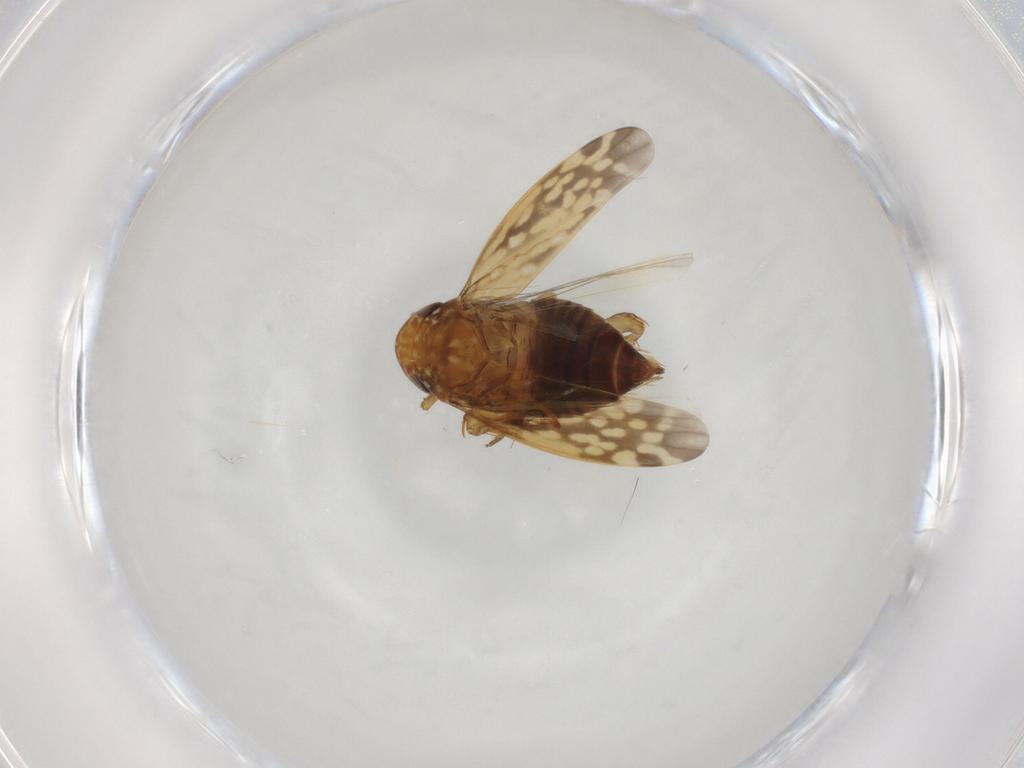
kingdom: Animalia
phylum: Arthropoda
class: Insecta
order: Hemiptera
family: Cicadellidae
